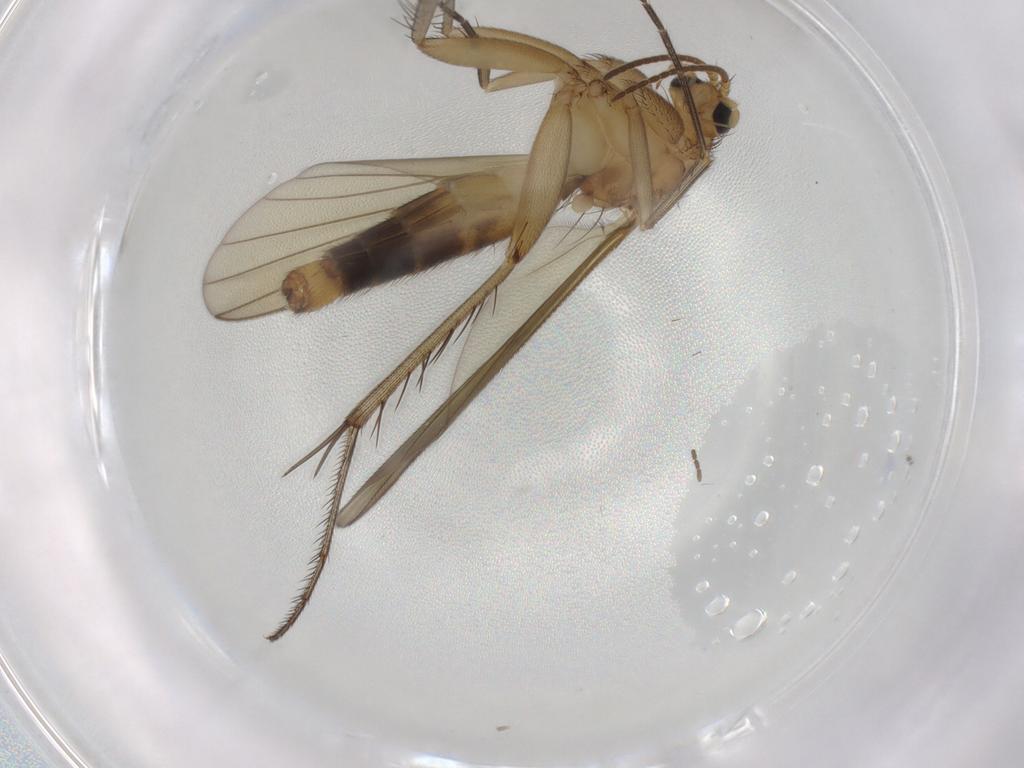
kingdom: Animalia
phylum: Arthropoda
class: Insecta
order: Diptera
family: Mycetophilidae
